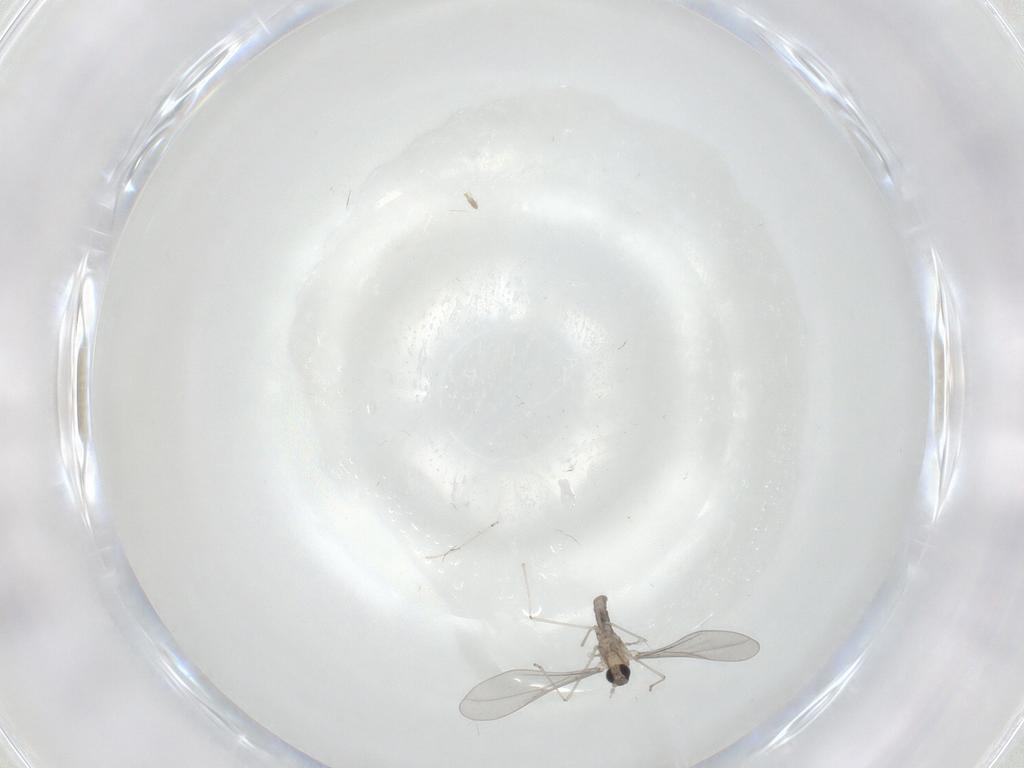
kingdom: Animalia
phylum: Arthropoda
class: Insecta
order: Diptera
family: Cecidomyiidae
